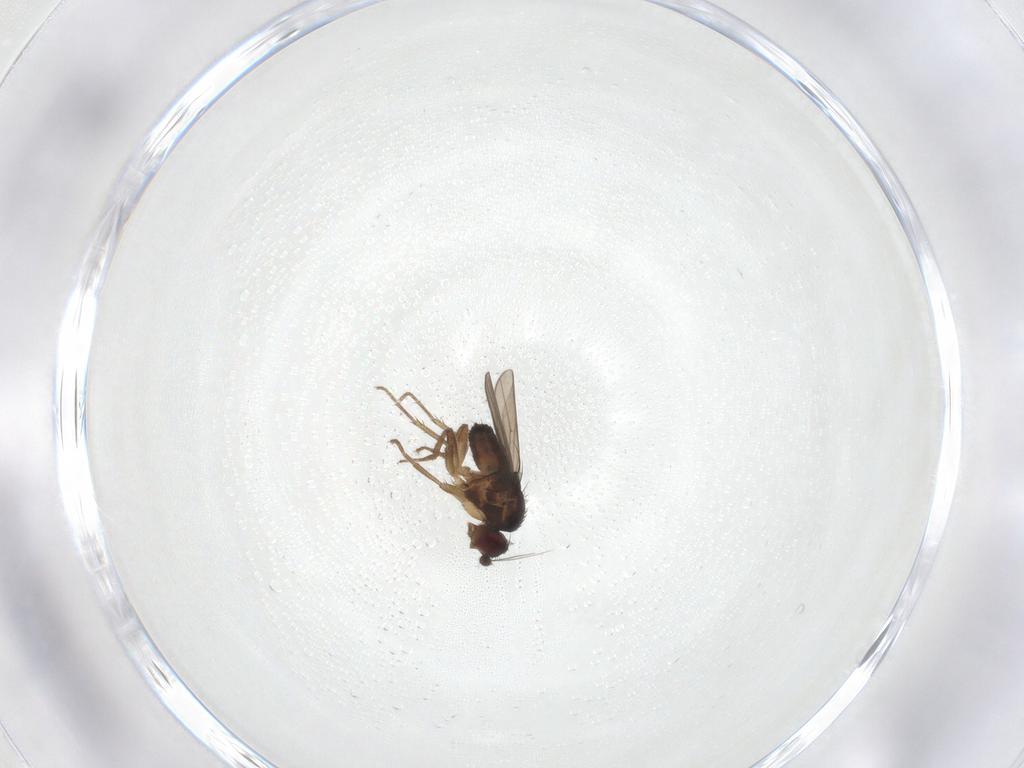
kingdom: Animalia
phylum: Arthropoda
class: Insecta
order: Diptera
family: Sphaeroceridae
